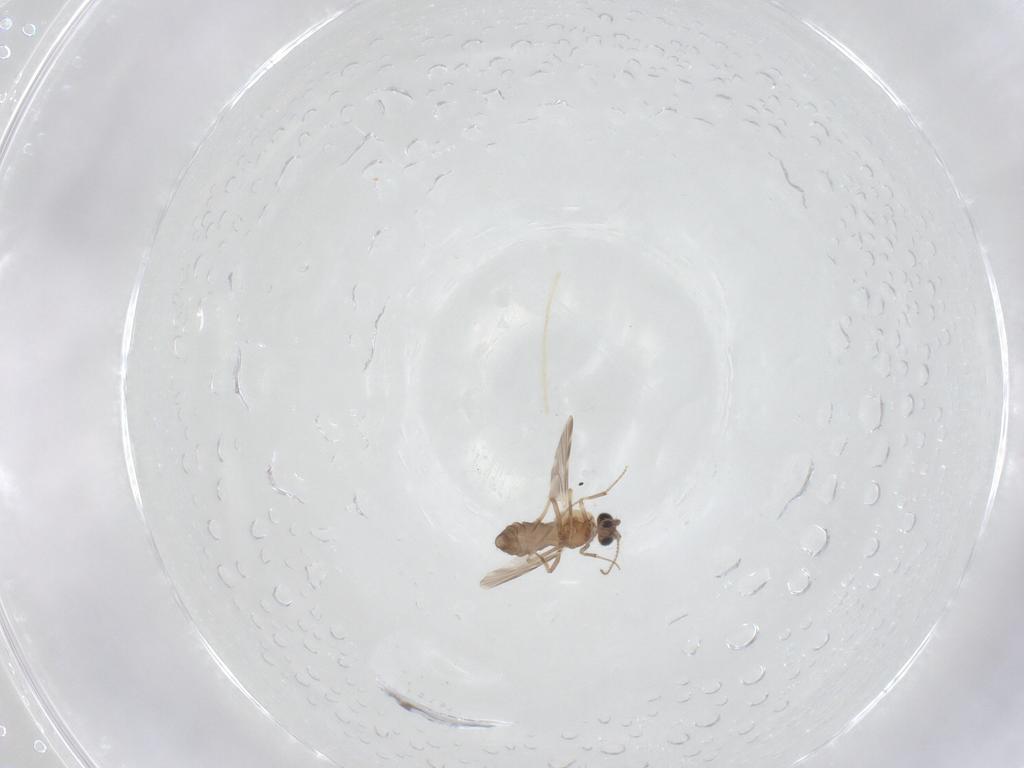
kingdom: Animalia
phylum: Arthropoda
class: Insecta
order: Diptera
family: Ceratopogonidae
